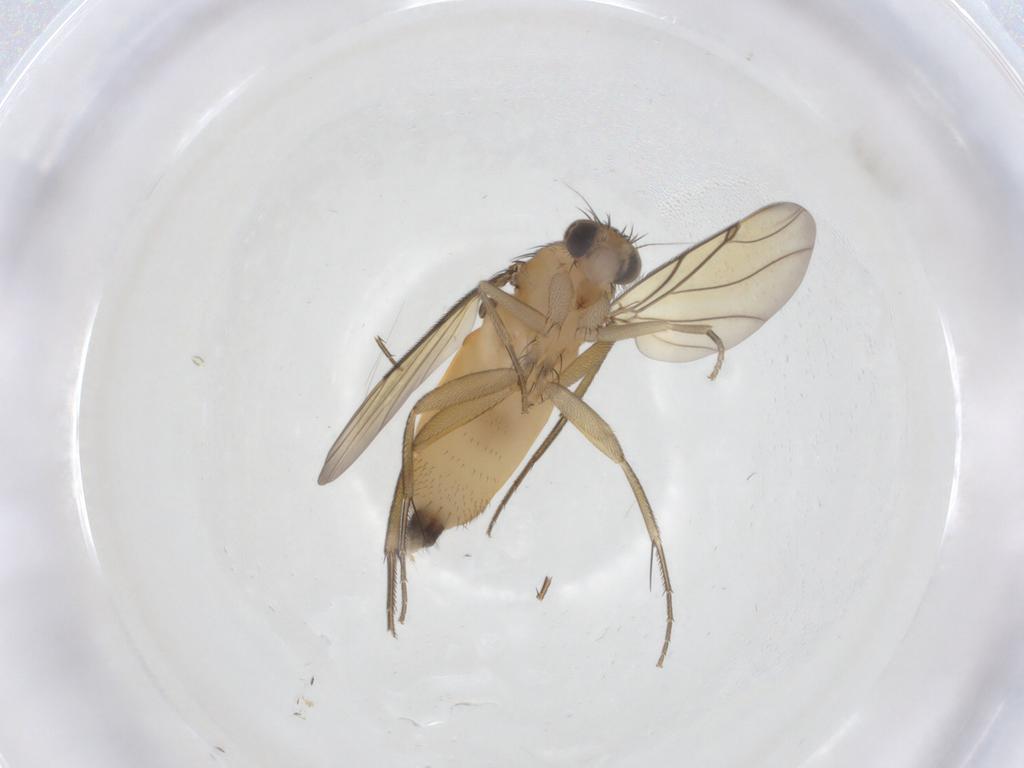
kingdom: Animalia
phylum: Arthropoda
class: Insecta
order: Diptera
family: Phoridae
